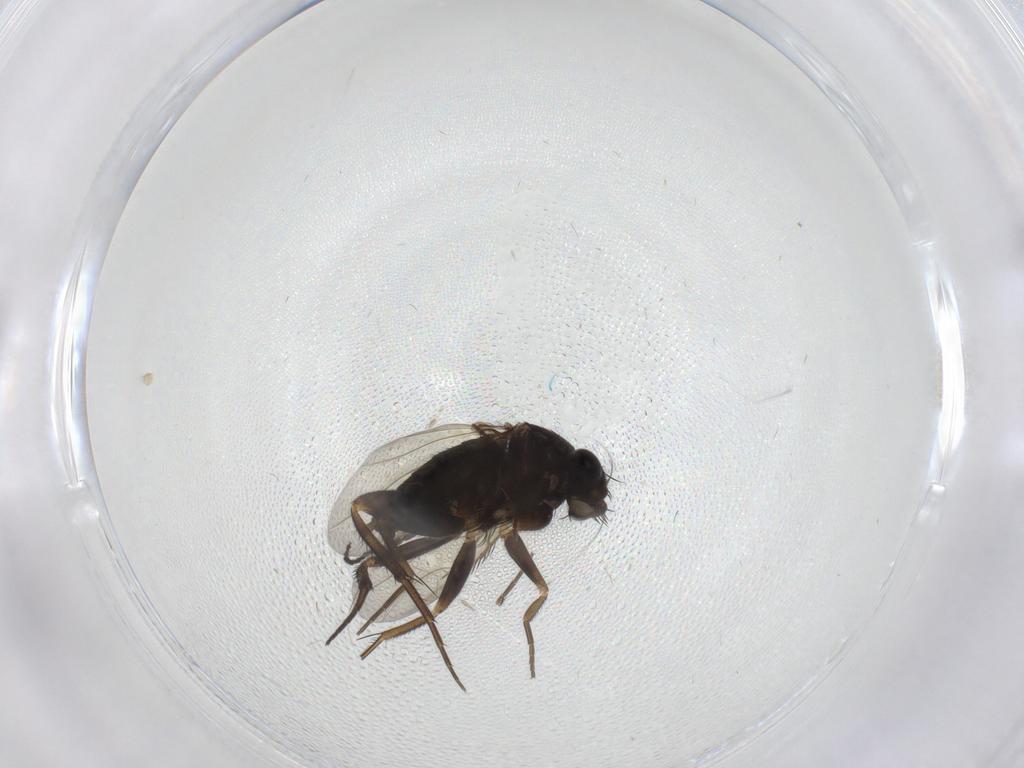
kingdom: Animalia
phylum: Arthropoda
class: Insecta
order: Diptera
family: Sciaridae
